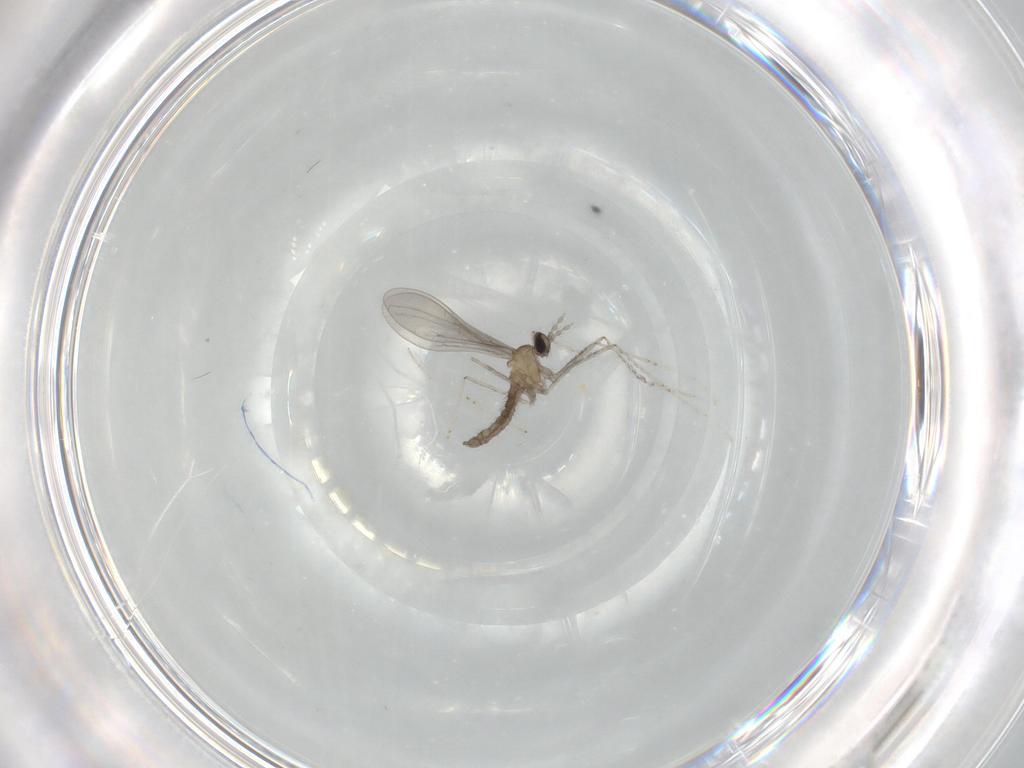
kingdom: Animalia
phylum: Arthropoda
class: Insecta
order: Diptera
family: Cecidomyiidae
